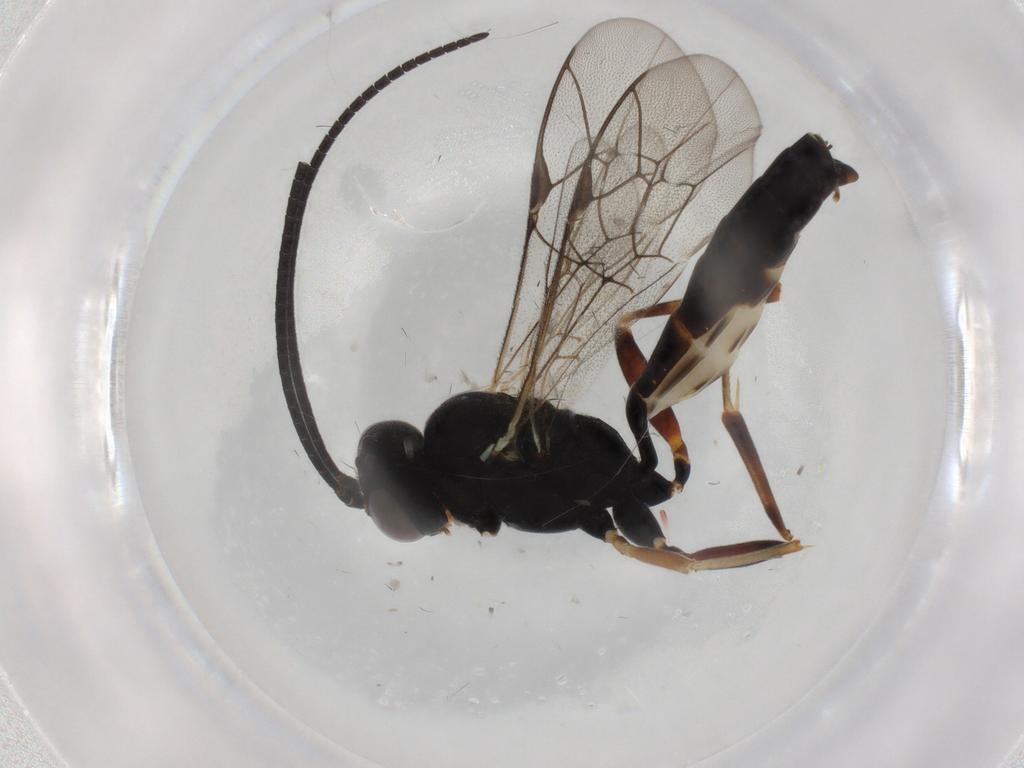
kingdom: Animalia
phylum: Arthropoda
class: Insecta
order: Hymenoptera
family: Ichneumonidae
